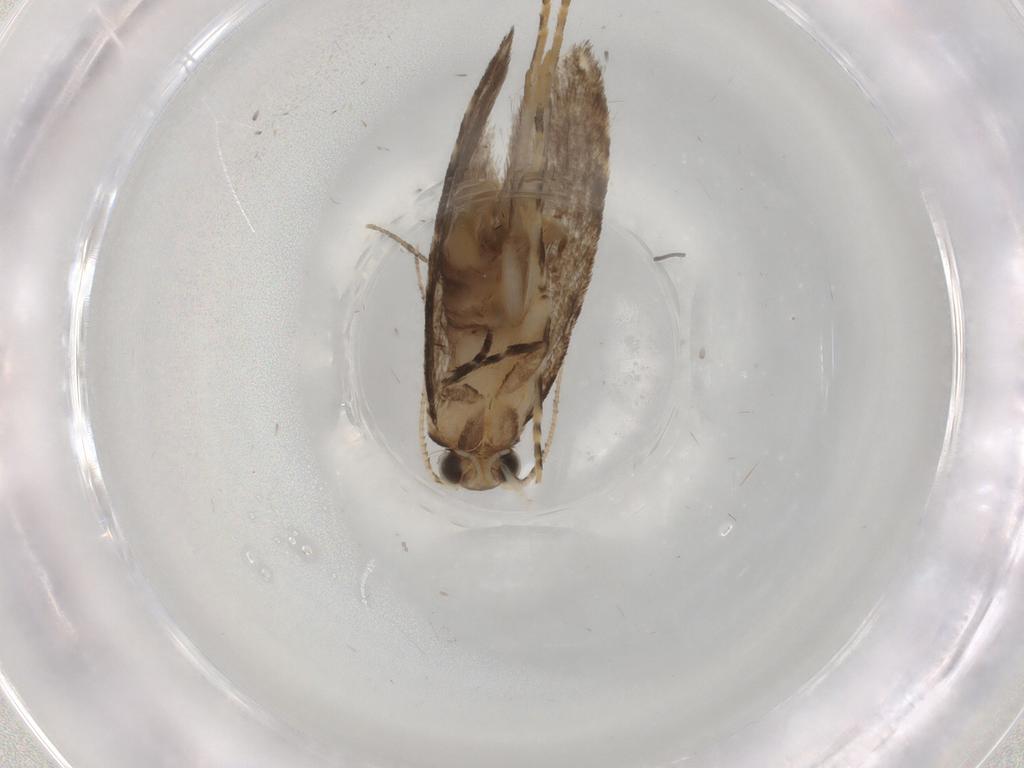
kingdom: Animalia
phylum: Arthropoda
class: Insecta
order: Lepidoptera
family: Tineidae
